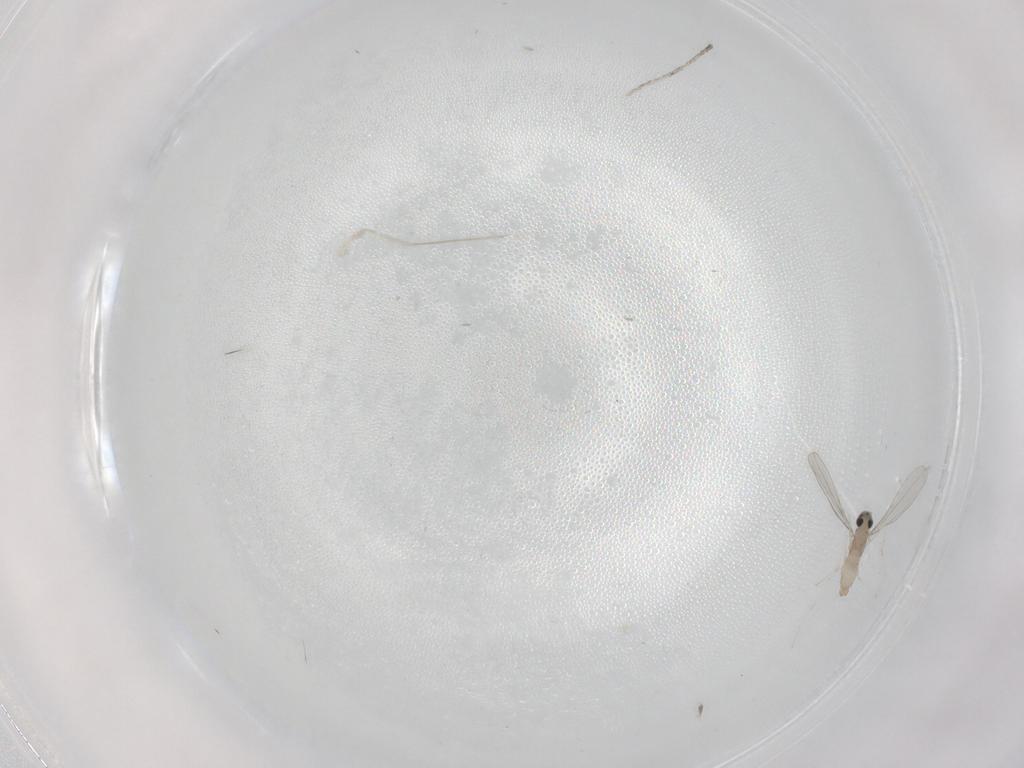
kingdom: Animalia
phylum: Arthropoda
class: Insecta
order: Diptera
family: Cecidomyiidae
